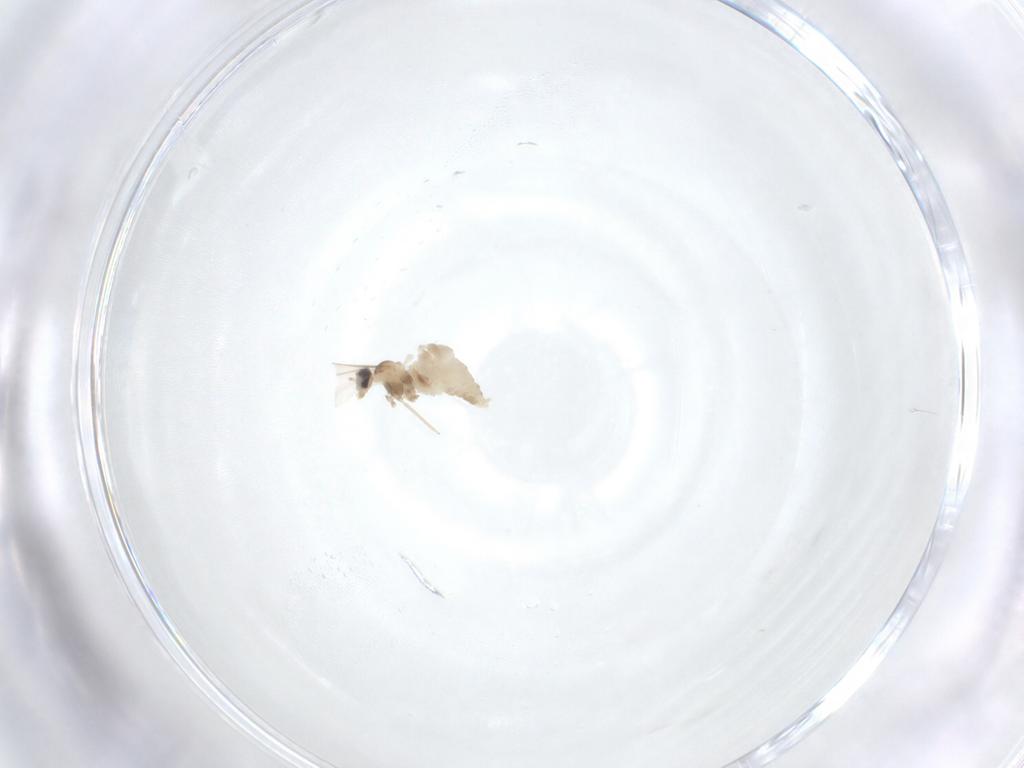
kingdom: Animalia
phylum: Arthropoda
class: Insecta
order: Diptera
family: Cecidomyiidae
